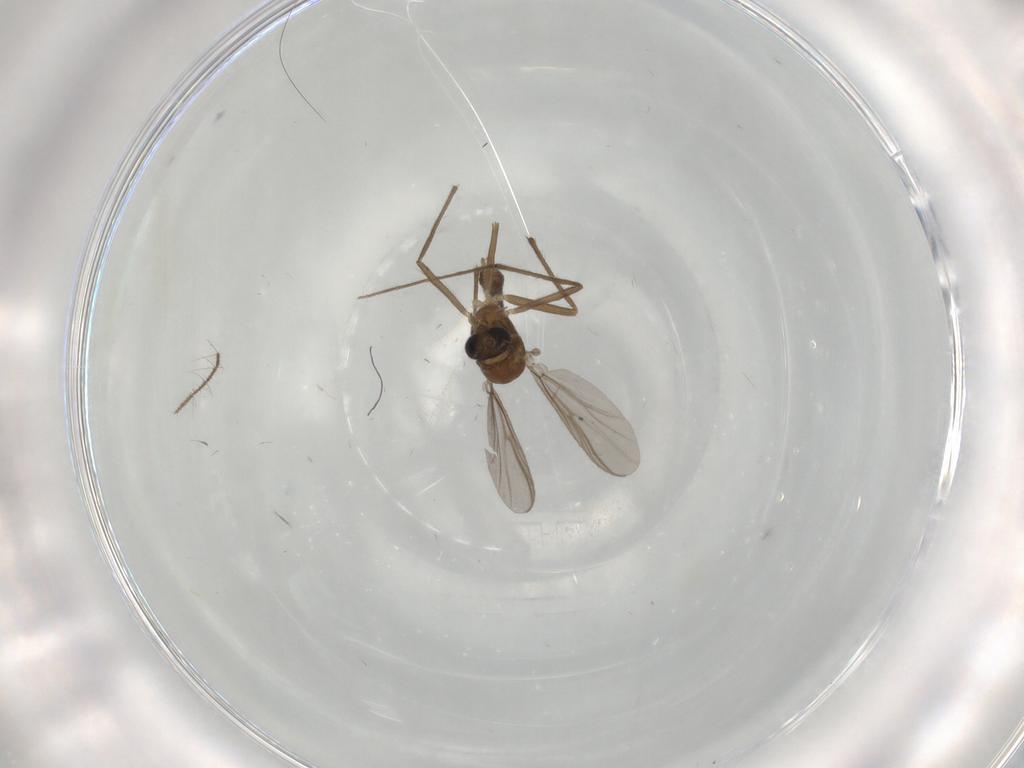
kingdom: Animalia
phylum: Arthropoda
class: Insecta
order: Diptera
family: Chironomidae
